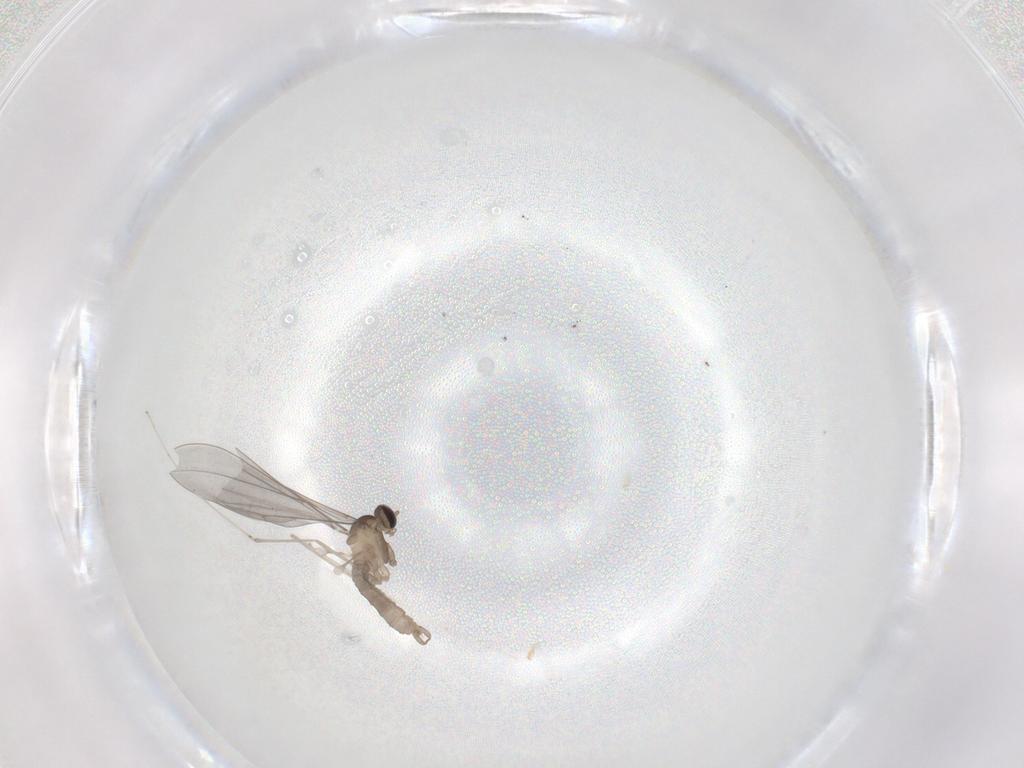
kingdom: Animalia
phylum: Arthropoda
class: Insecta
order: Diptera
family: Cecidomyiidae
